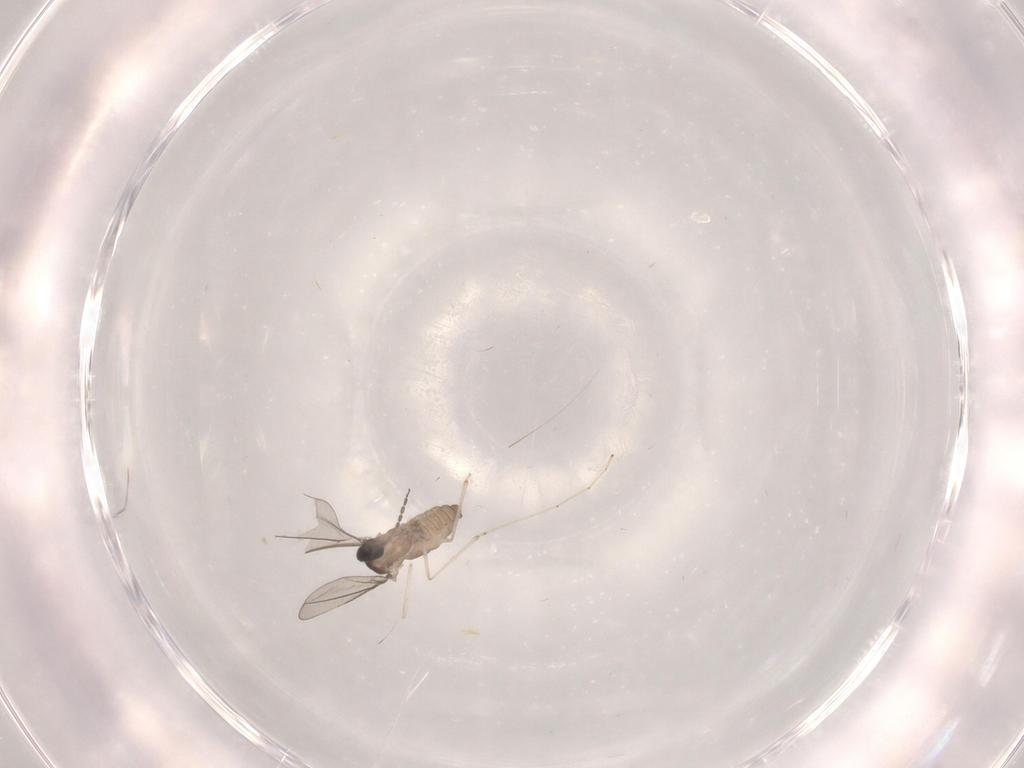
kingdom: Animalia
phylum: Arthropoda
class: Insecta
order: Diptera
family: Cecidomyiidae
